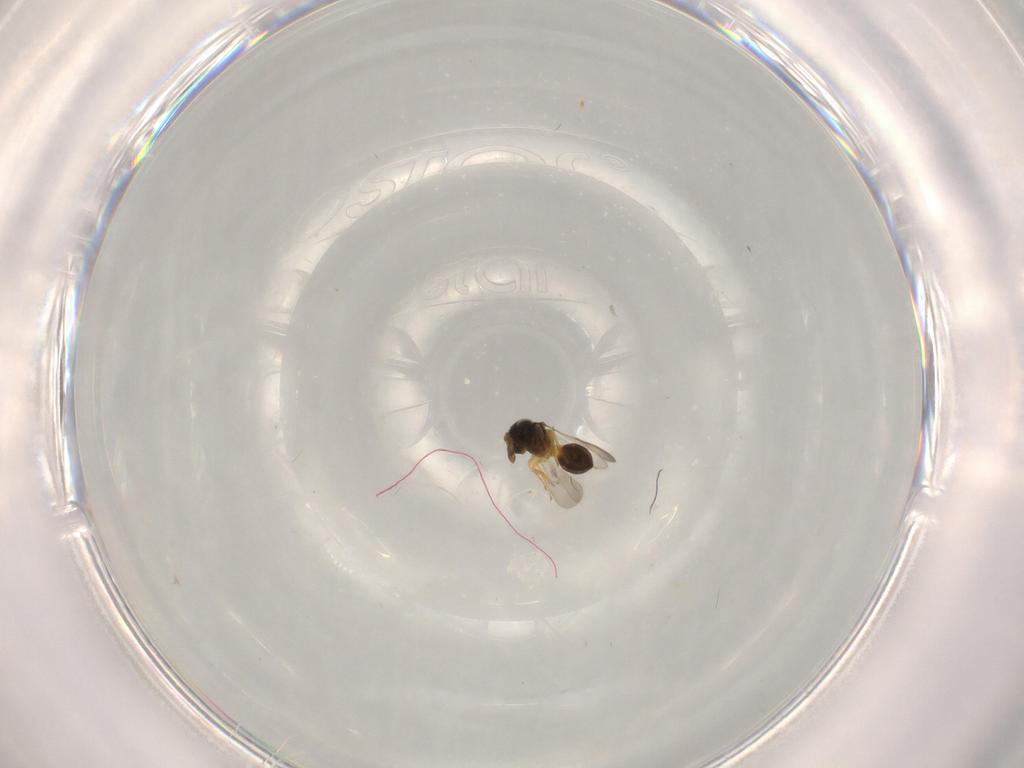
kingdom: Animalia
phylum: Arthropoda
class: Insecta
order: Hymenoptera
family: Scelionidae
